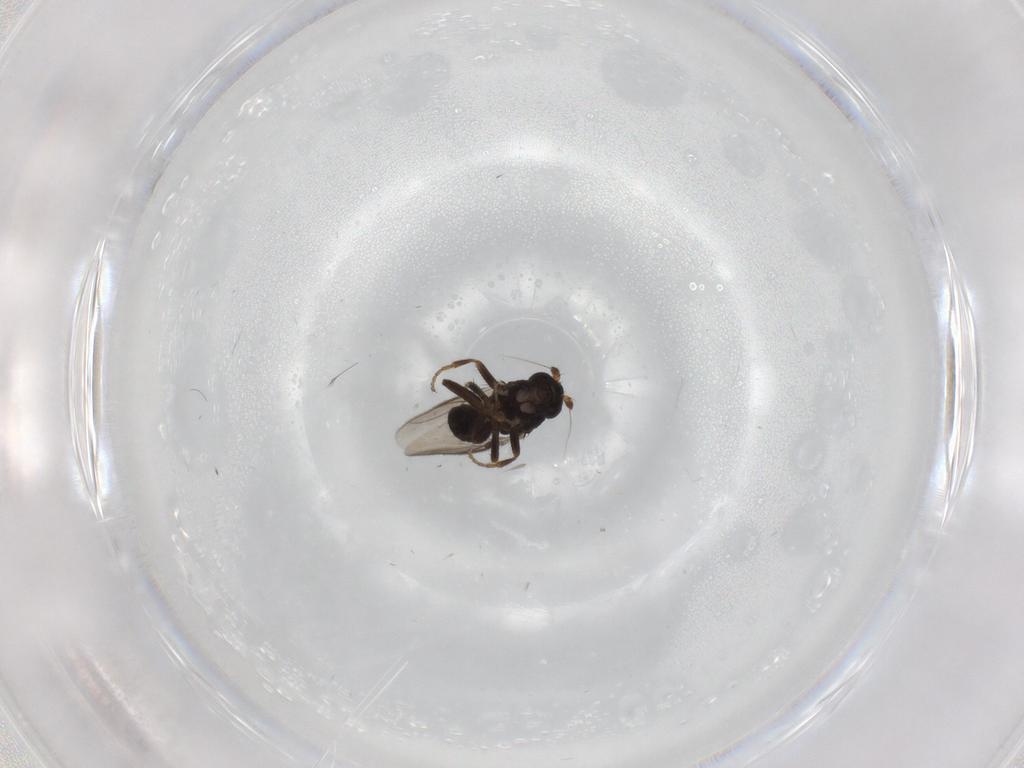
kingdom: Animalia
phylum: Arthropoda
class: Insecta
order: Diptera
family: Sphaeroceridae
